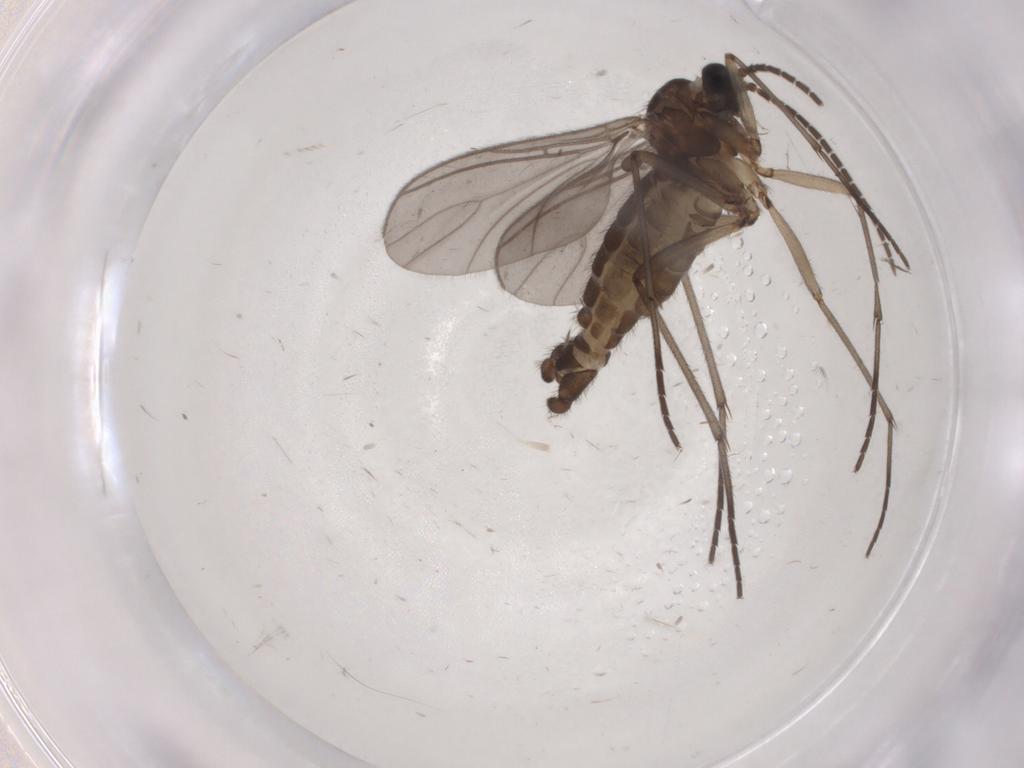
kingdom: Animalia
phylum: Arthropoda
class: Insecta
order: Diptera
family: Sciaridae
